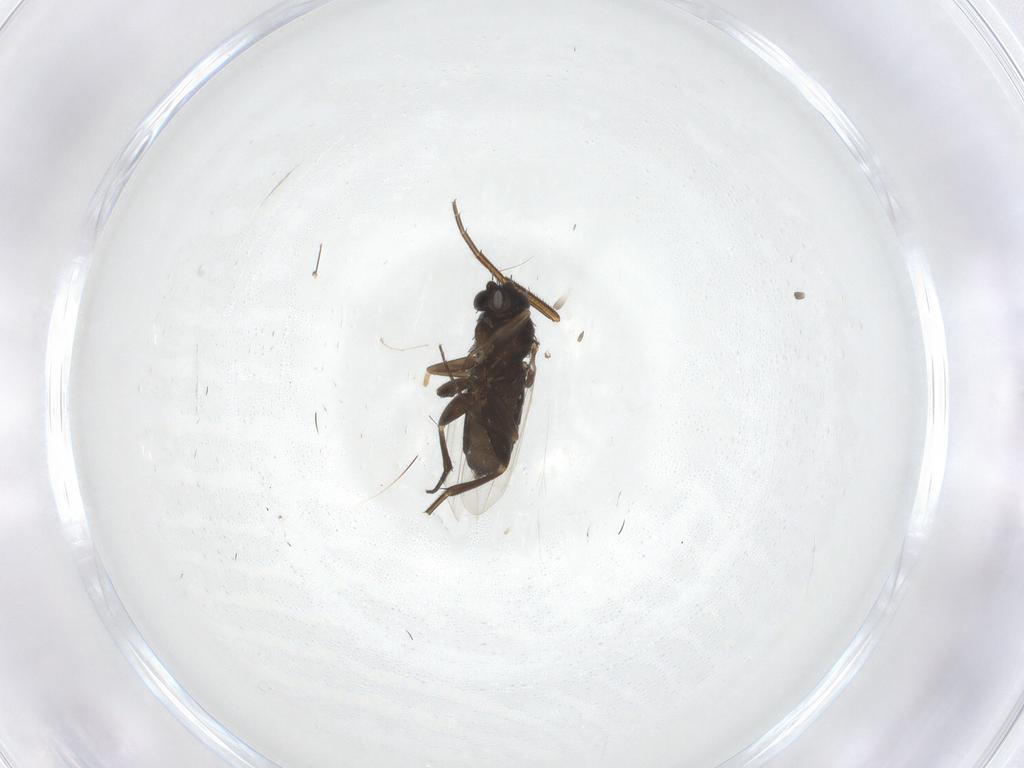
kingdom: Animalia
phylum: Arthropoda
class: Insecta
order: Diptera
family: Phoridae
